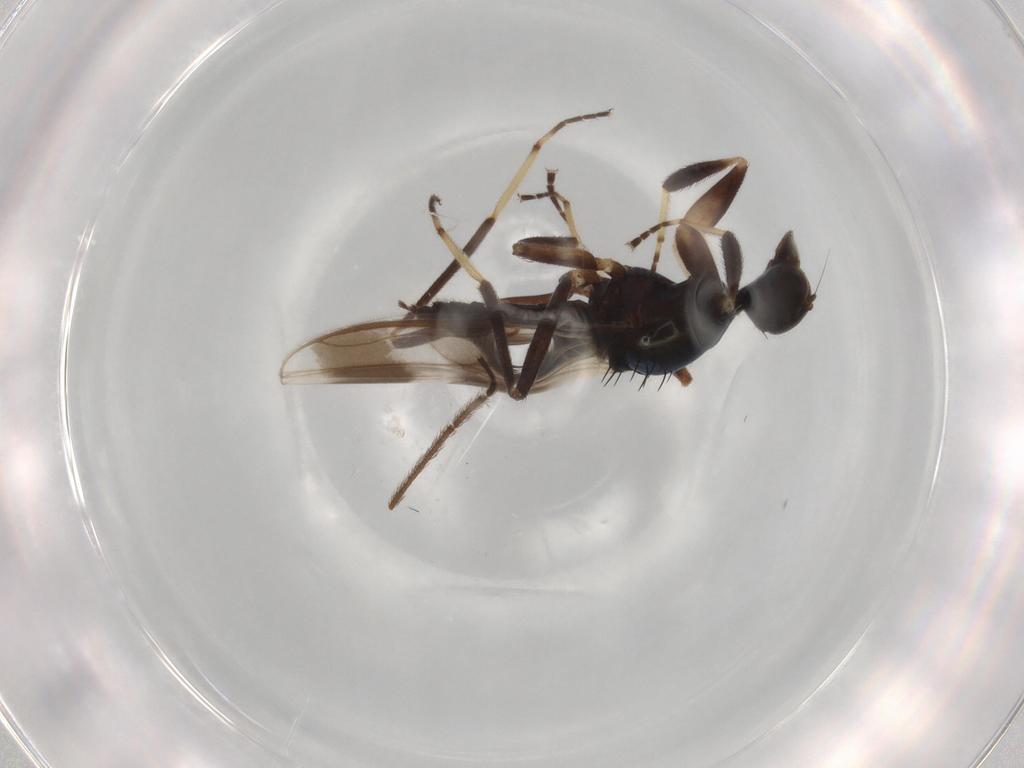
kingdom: Animalia
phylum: Arthropoda
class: Insecta
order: Diptera
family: Hybotidae
